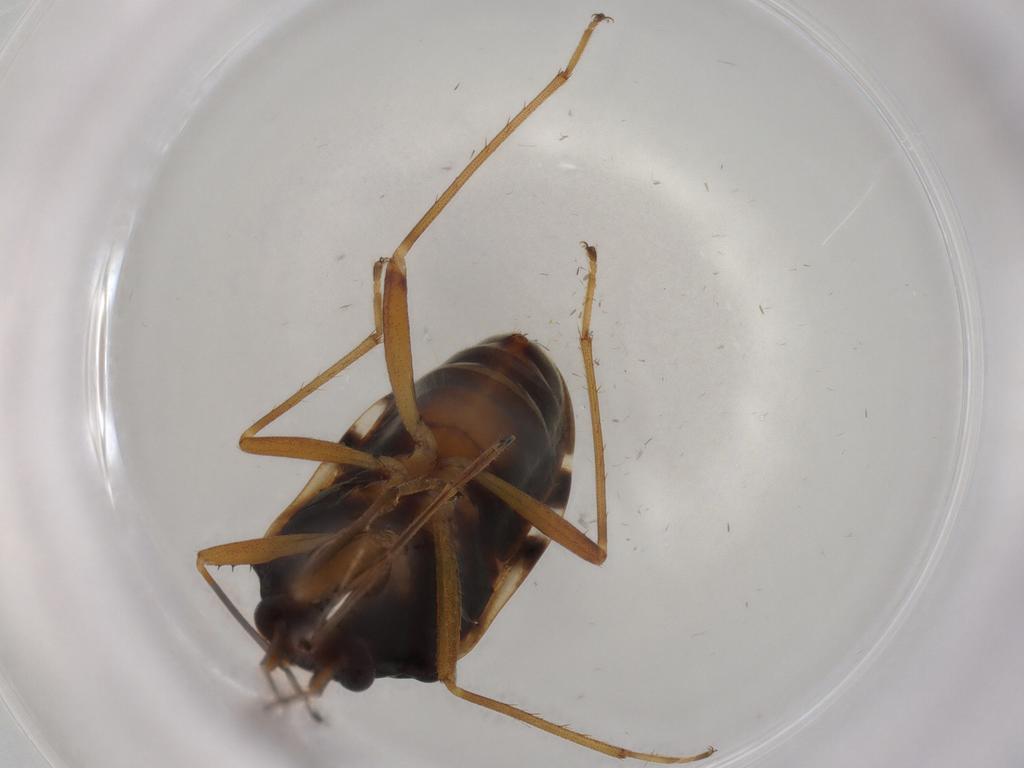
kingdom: Animalia
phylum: Arthropoda
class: Insecta
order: Hemiptera
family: Rhyparochromidae
